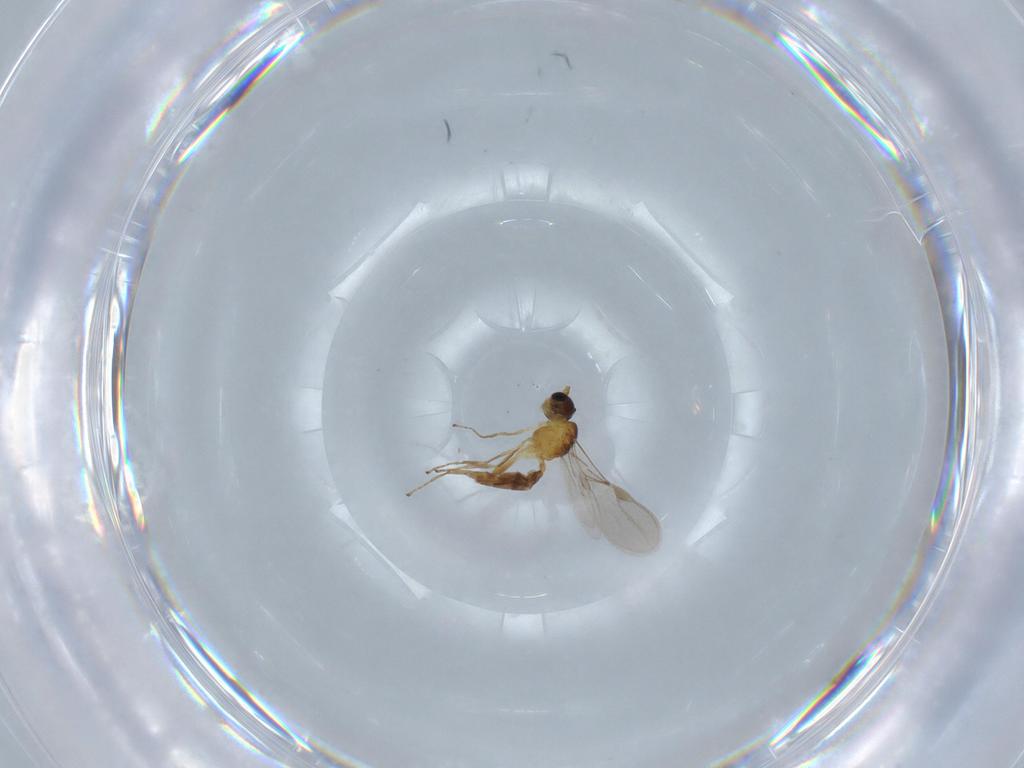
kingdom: Animalia
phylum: Arthropoda
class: Insecta
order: Hymenoptera
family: Braconidae
